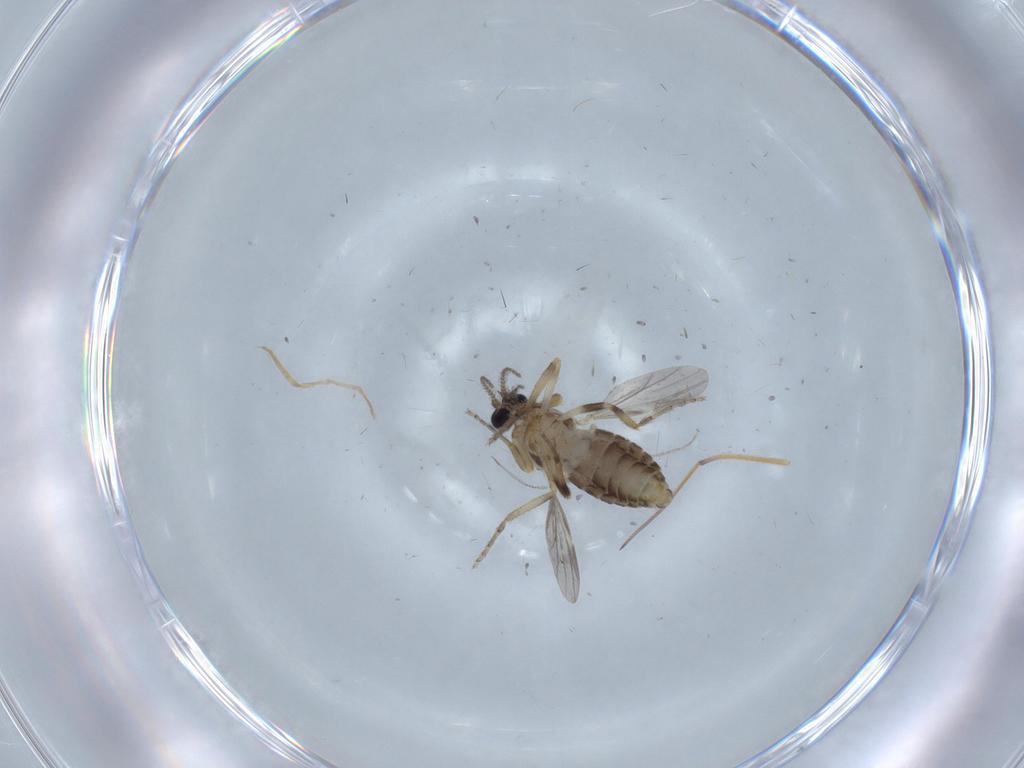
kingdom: Animalia
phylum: Arthropoda
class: Insecta
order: Diptera
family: Ceratopogonidae
